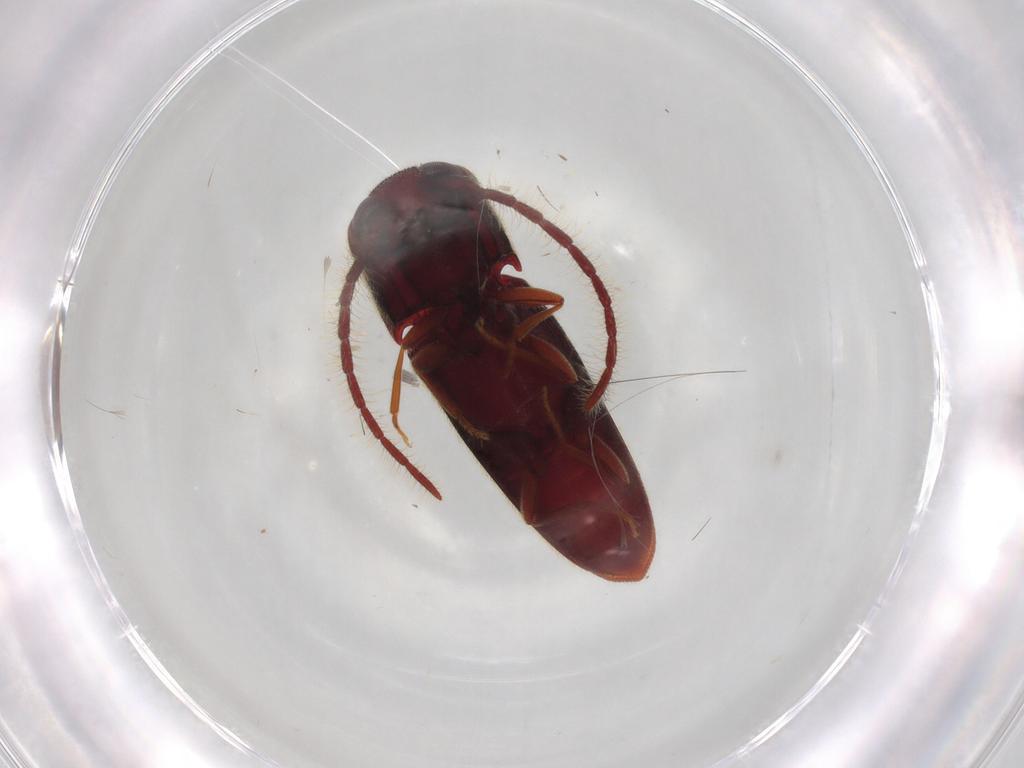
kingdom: Animalia
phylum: Arthropoda
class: Insecta
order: Coleoptera
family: Eucnemidae
